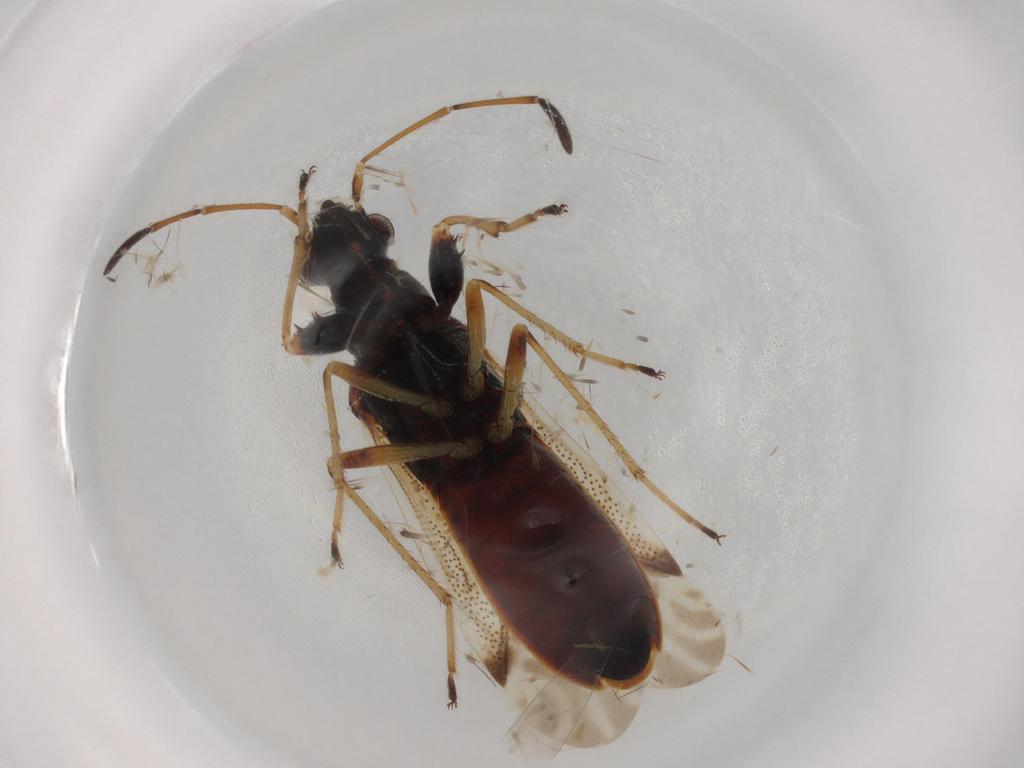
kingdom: Animalia
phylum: Arthropoda
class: Insecta
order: Hemiptera
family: Rhyparochromidae
